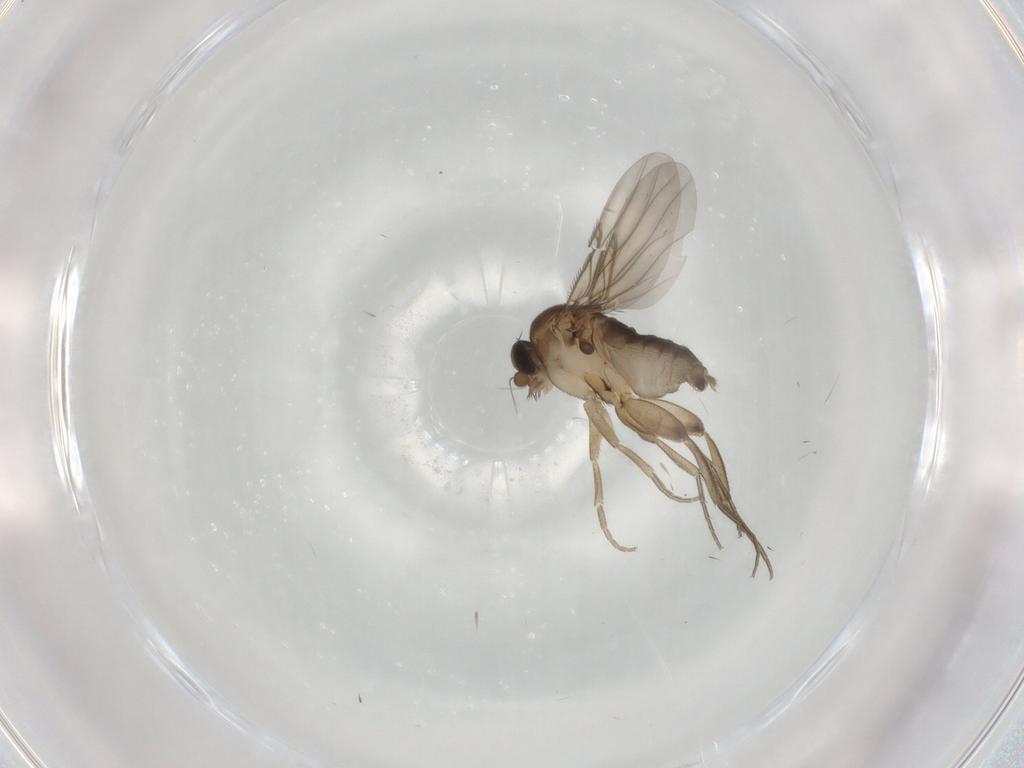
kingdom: Animalia
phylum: Arthropoda
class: Insecta
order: Diptera
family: Phoridae
